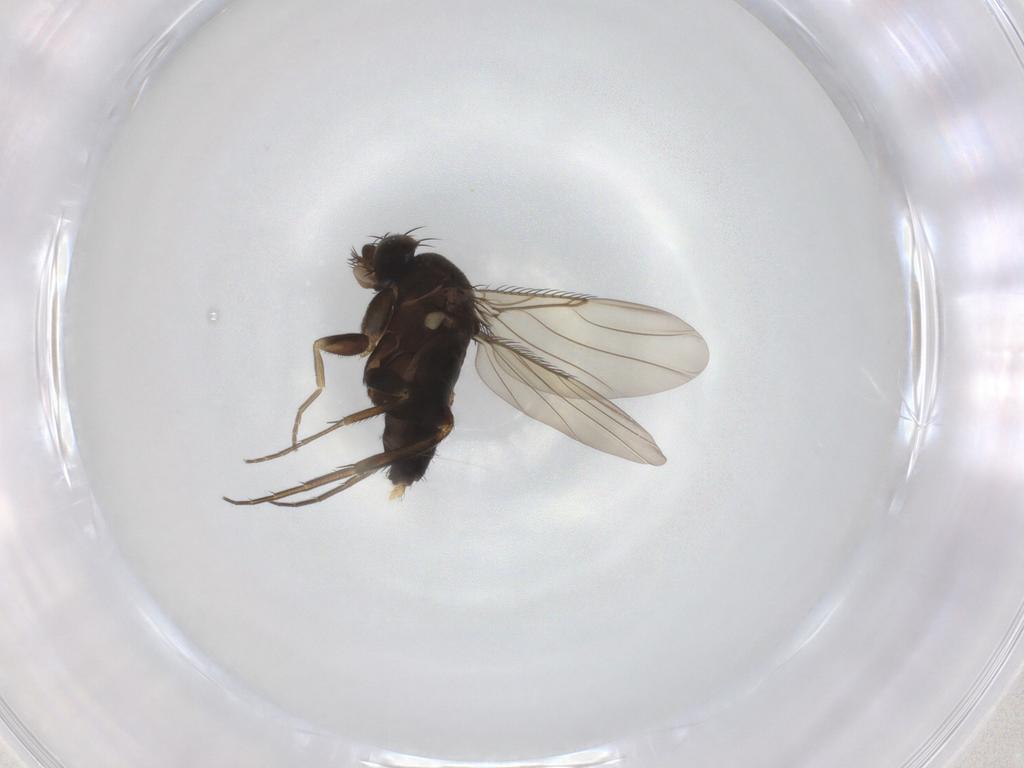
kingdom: Animalia
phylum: Arthropoda
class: Insecta
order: Diptera
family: Phoridae
